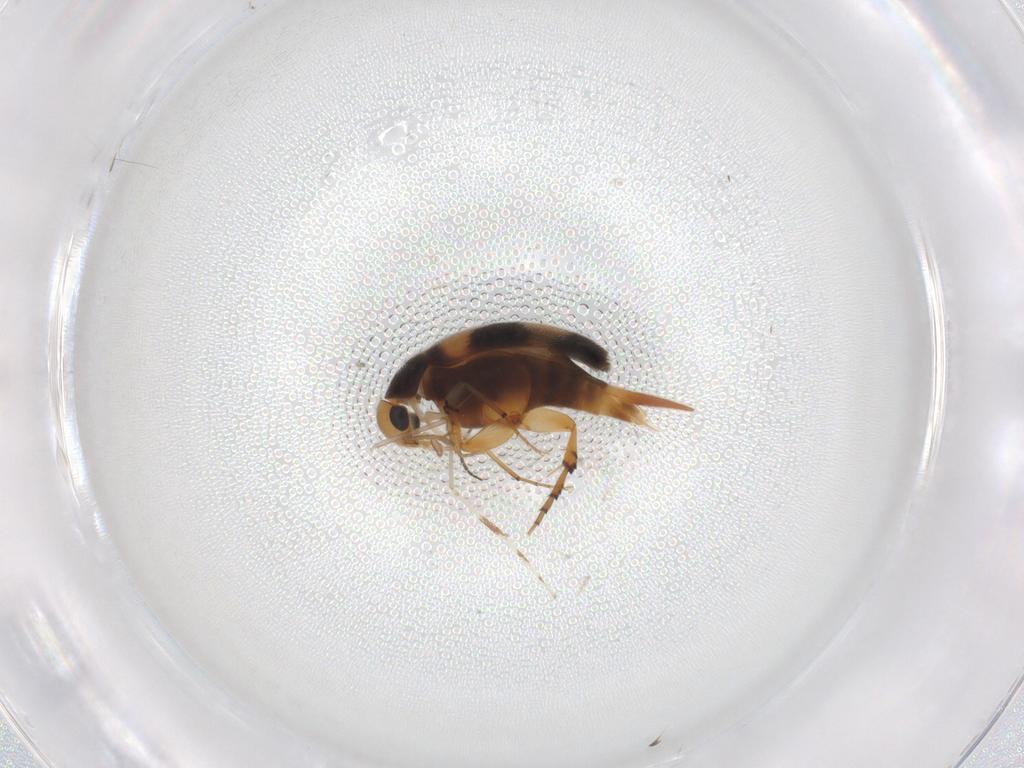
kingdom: Animalia
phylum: Arthropoda
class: Insecta
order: Coleoptera
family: Mordellidae
